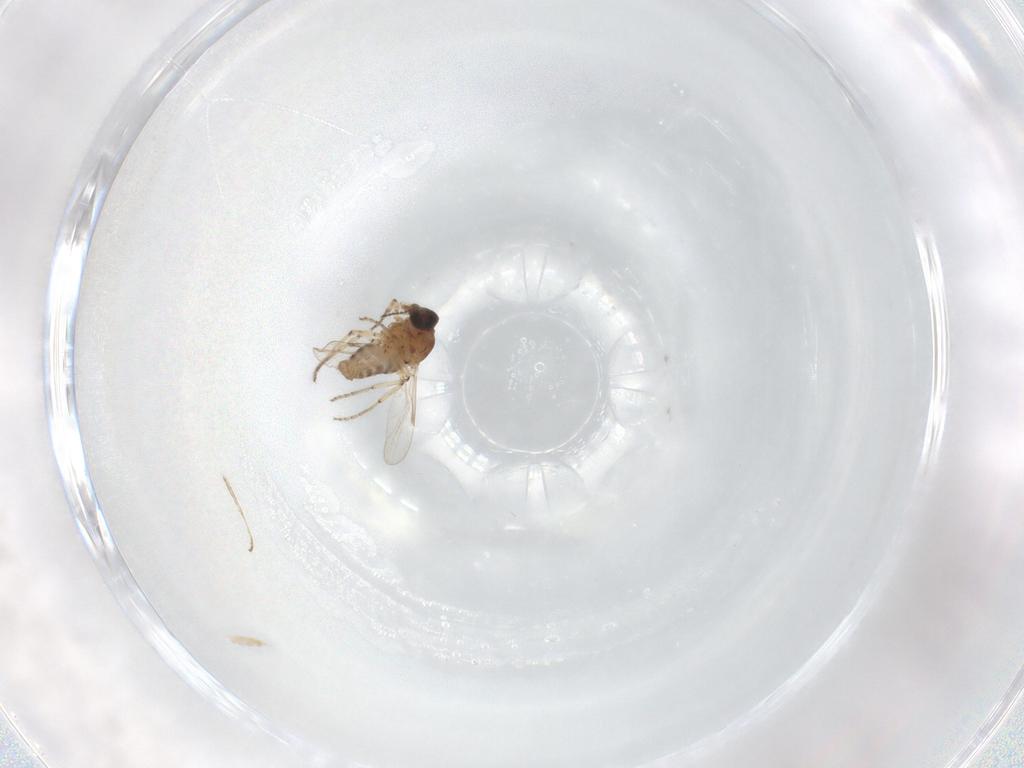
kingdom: Animalia
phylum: Arthropoda
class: Insecta
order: Diptera
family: Ceratopogonidae
